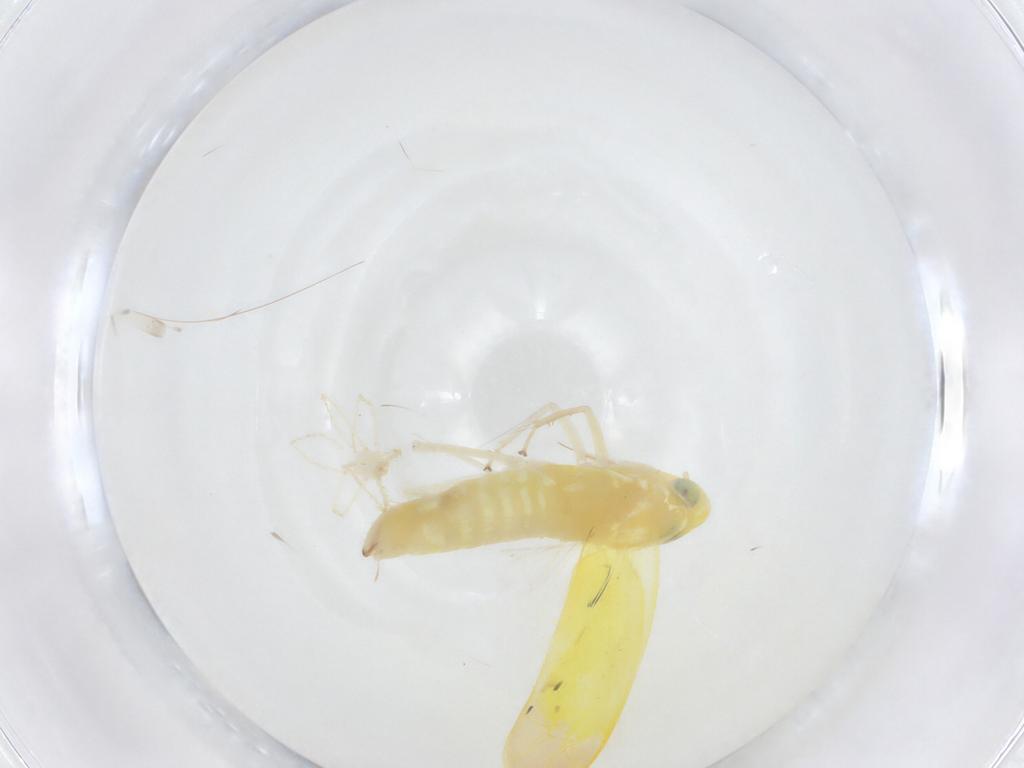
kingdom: Animalia
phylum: Arthropoda
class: Insecta
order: Hemiptera
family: Cicadellidae
